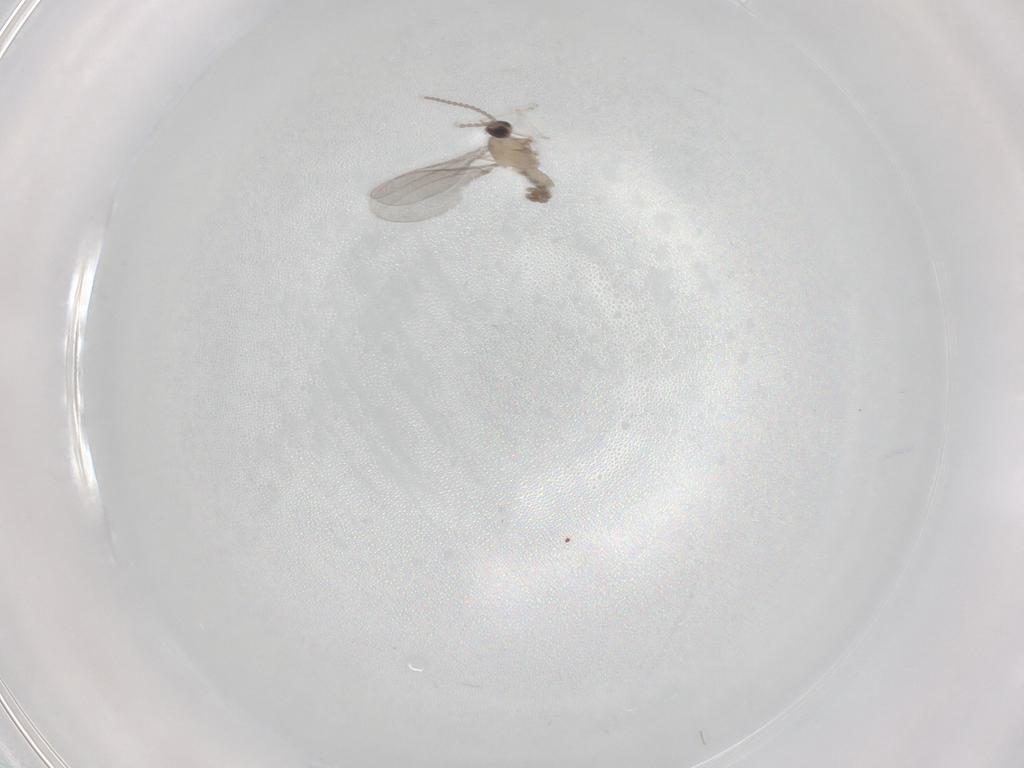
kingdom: Animalia
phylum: Arthropoda
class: Insecta
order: Diptera
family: Cecidomyiidae
